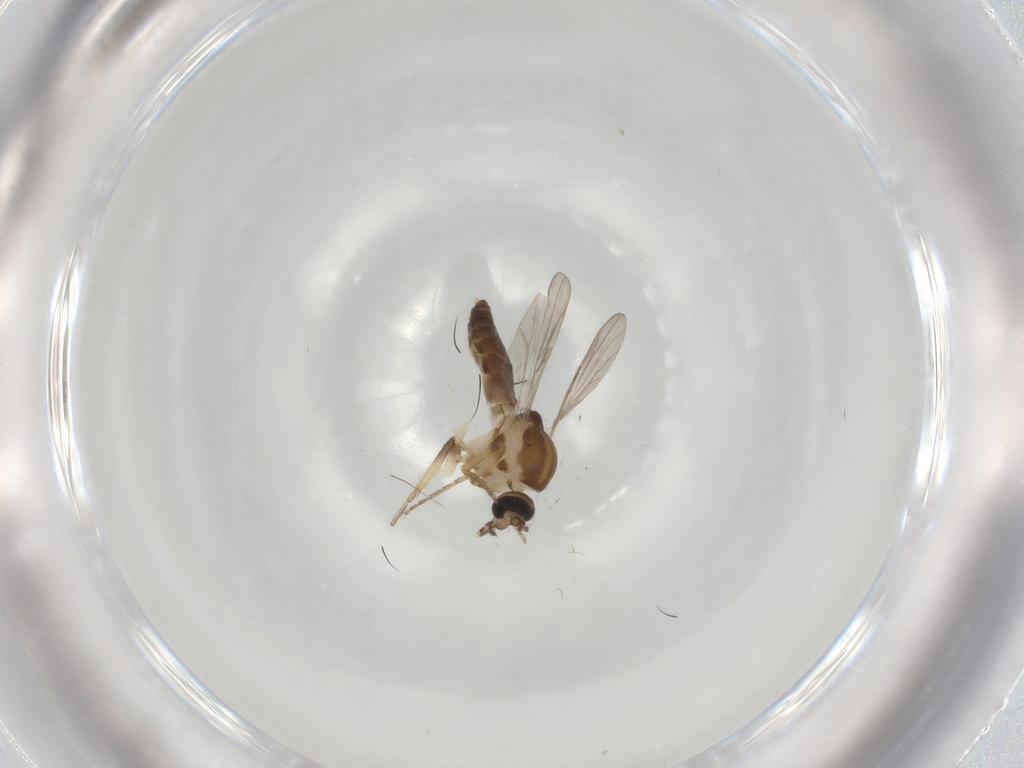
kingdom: Animalia
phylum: Arthropoda
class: Insecta
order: Diptera
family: Ceratopogonidae
